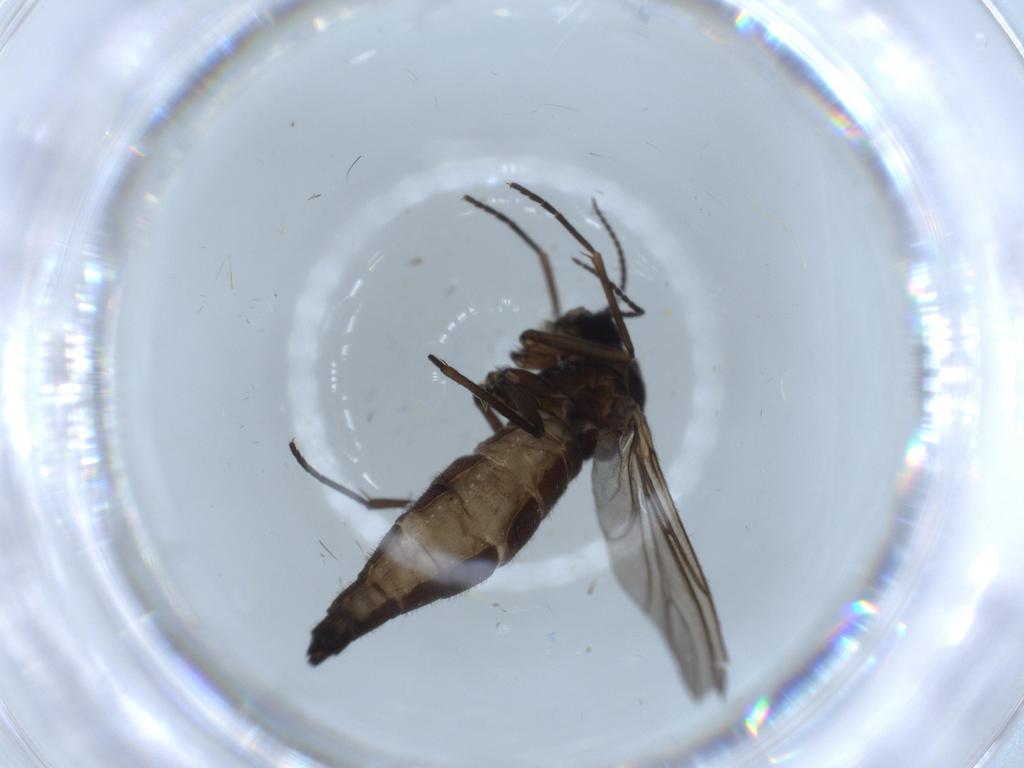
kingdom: Animalia
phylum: Arthropoda
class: Insecta
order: Diptera
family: Sciaridae
